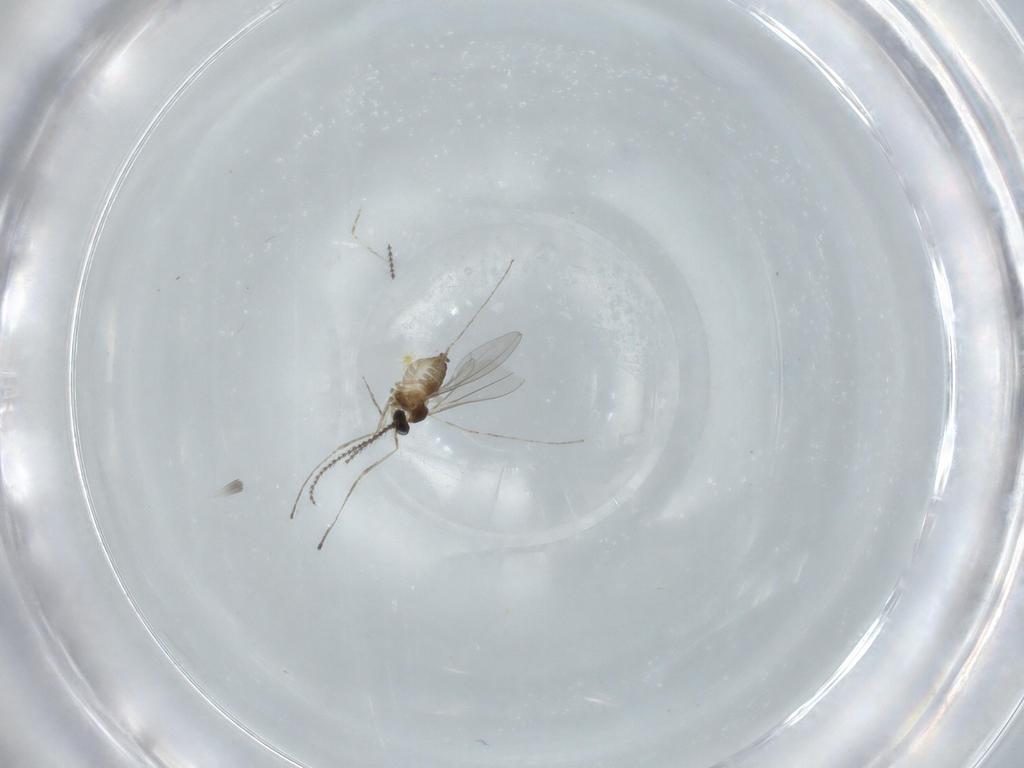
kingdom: Animalia
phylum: Arthropoda
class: Insecta
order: Diptera
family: Cecidomyiidae
